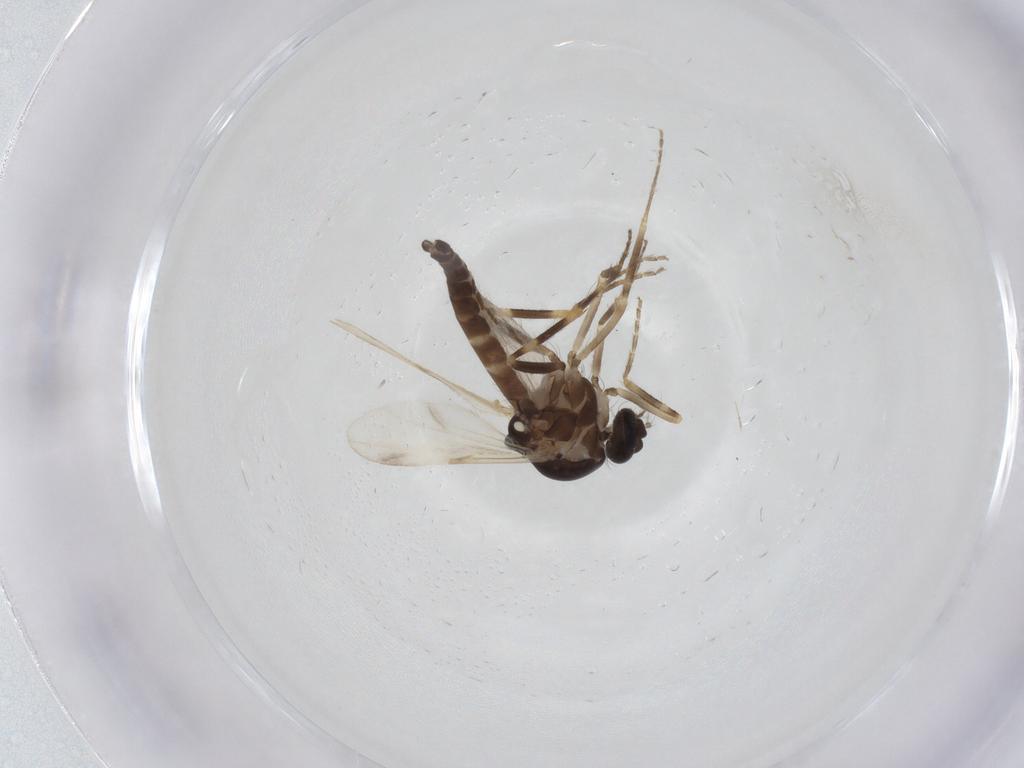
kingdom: Animalia
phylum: Arthropoda
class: Insecta
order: Diptera
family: Ceratopogonidae
